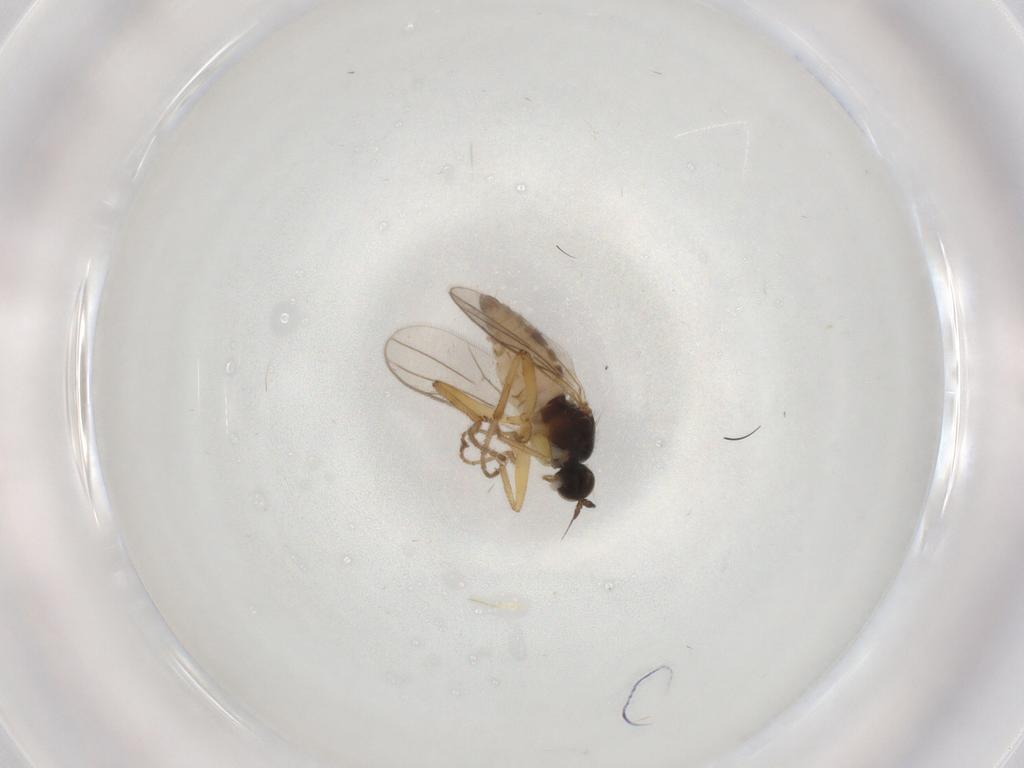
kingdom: Animalia
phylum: Arthropoda
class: Insecta
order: Diptera
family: Hybotidae
